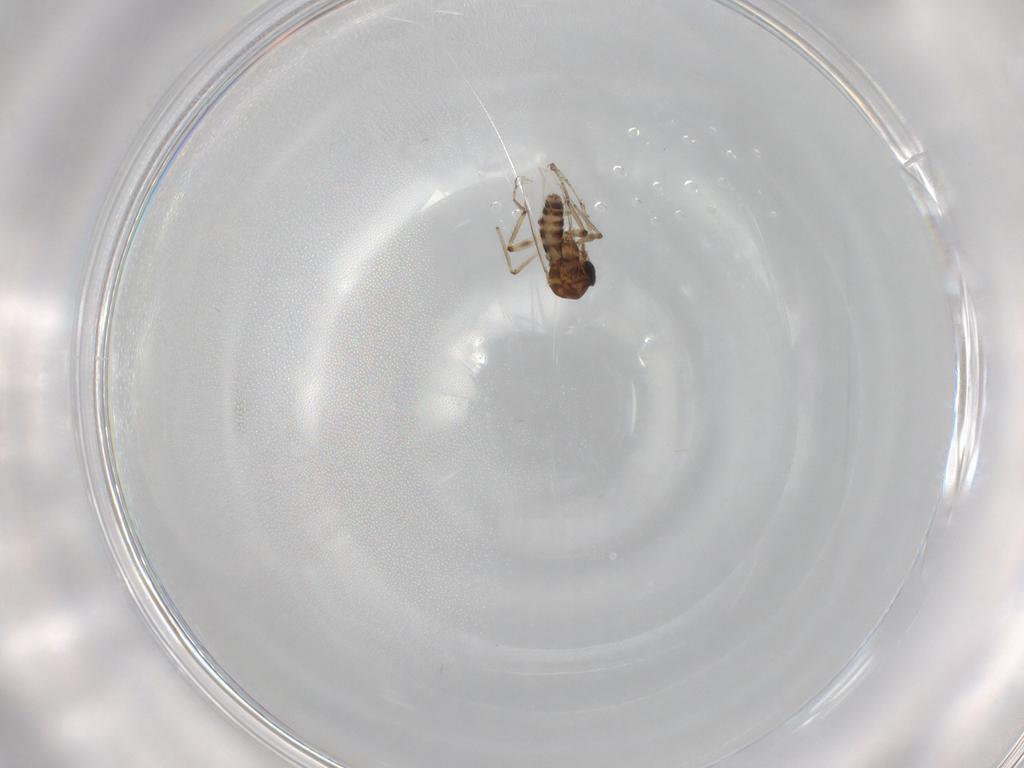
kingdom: Animalia
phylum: Arthropoda
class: Insecta
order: Diptera
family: Ceratopogonidae
